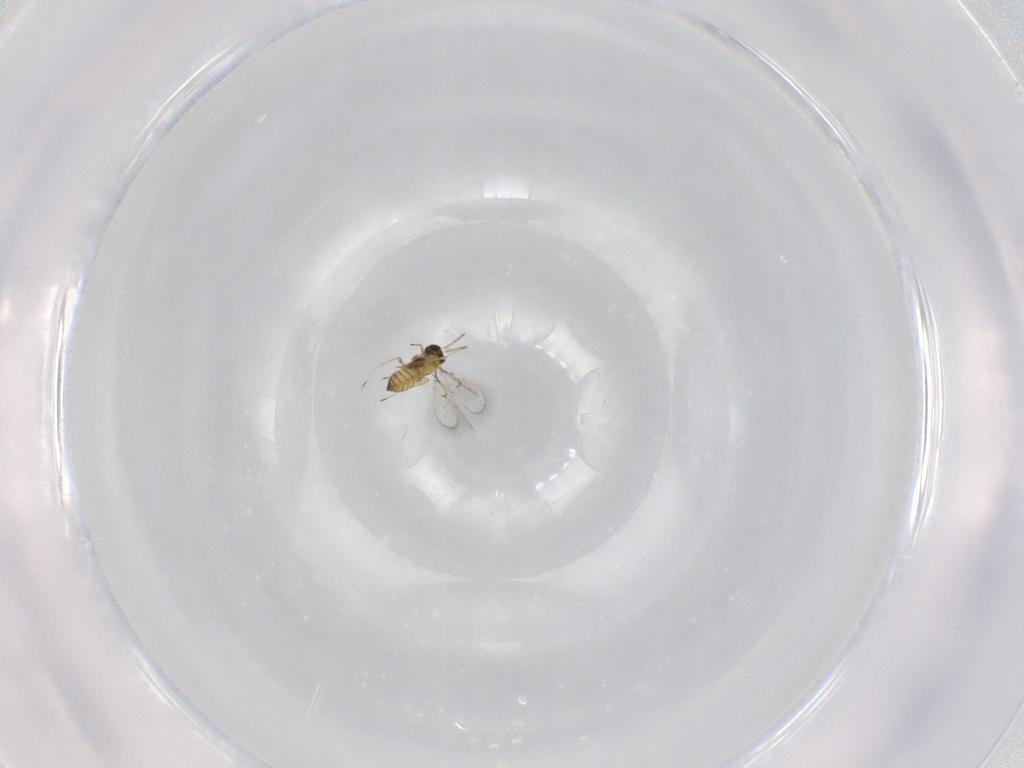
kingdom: Animalia
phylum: Arthropoda
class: Insecta
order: Hymenoptera
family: Trichogrammatidae
